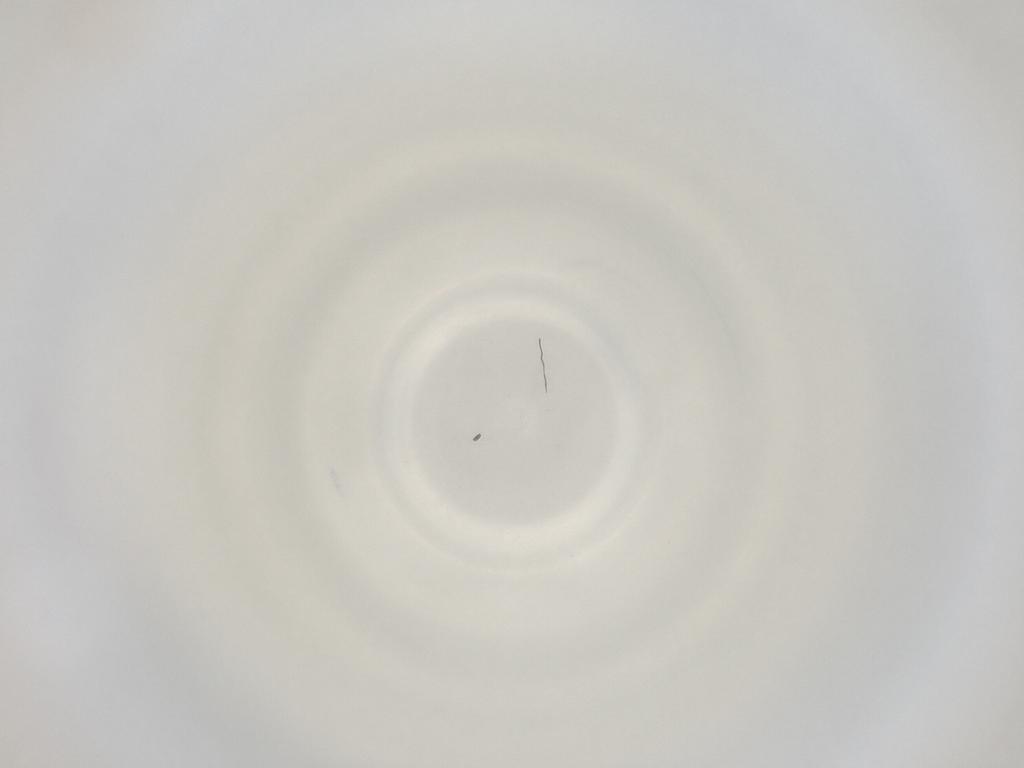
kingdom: Animalia
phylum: Arthropoda
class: Insecta
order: Diptera
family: Cecidomyiidae
